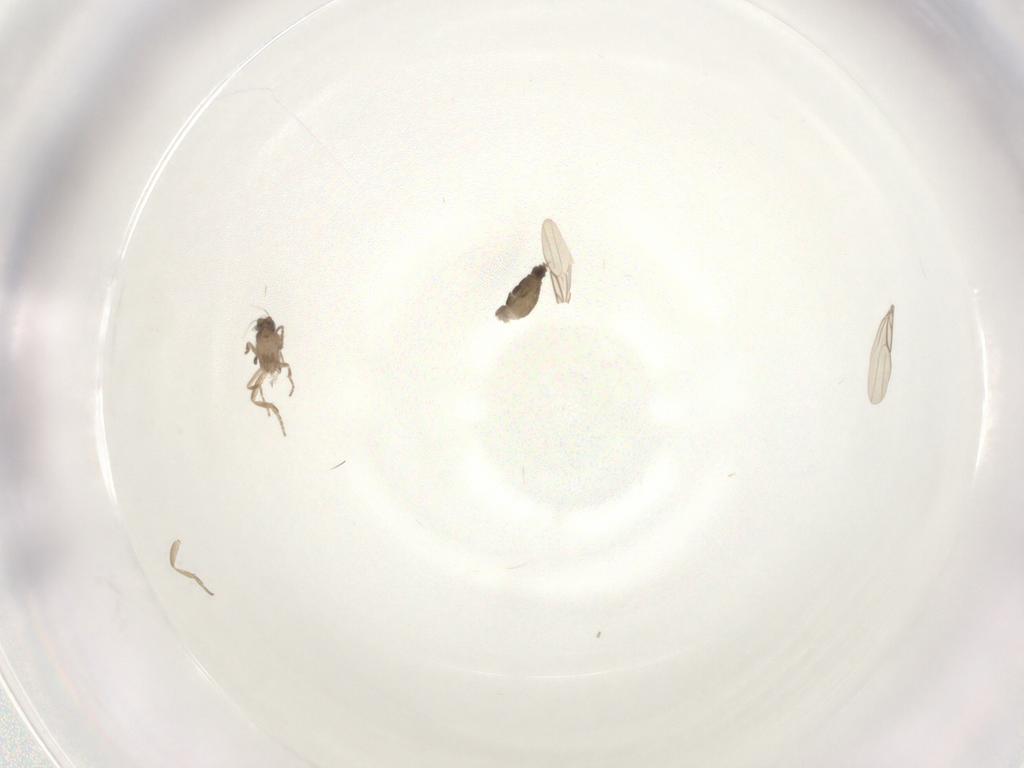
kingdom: Animalia
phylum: Arthropoda
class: Insecta
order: Diptera
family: Phoridae
